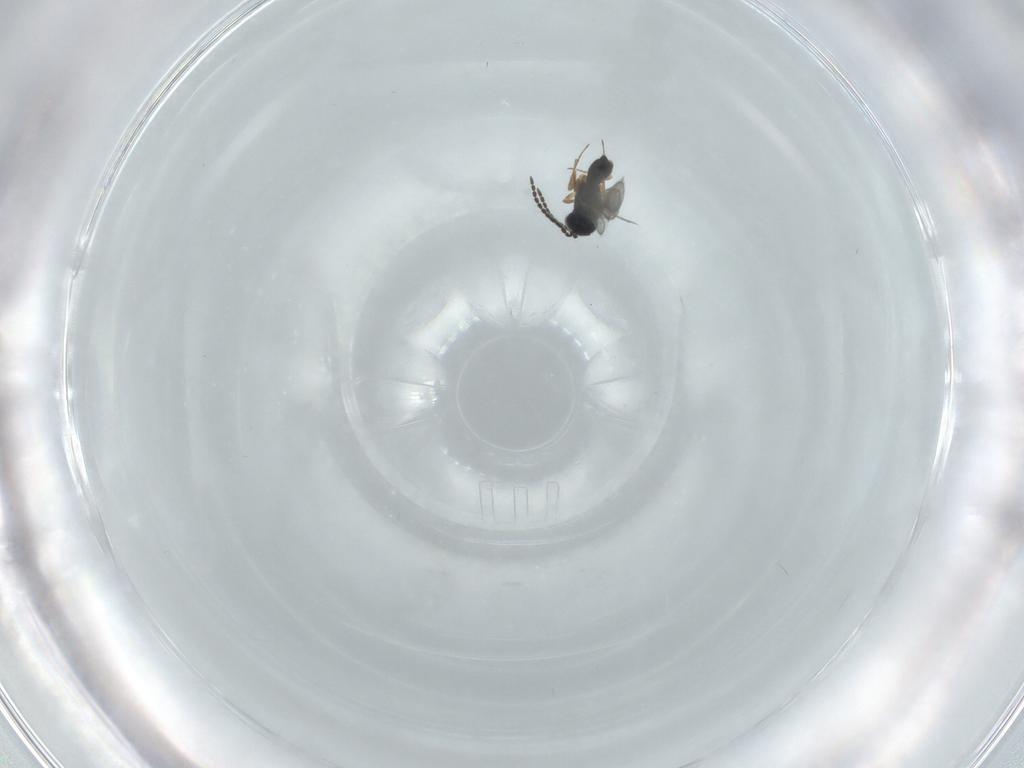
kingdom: Animalia
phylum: Arthropoda
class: Insecta
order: Hymenoptera
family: Scelionidae
